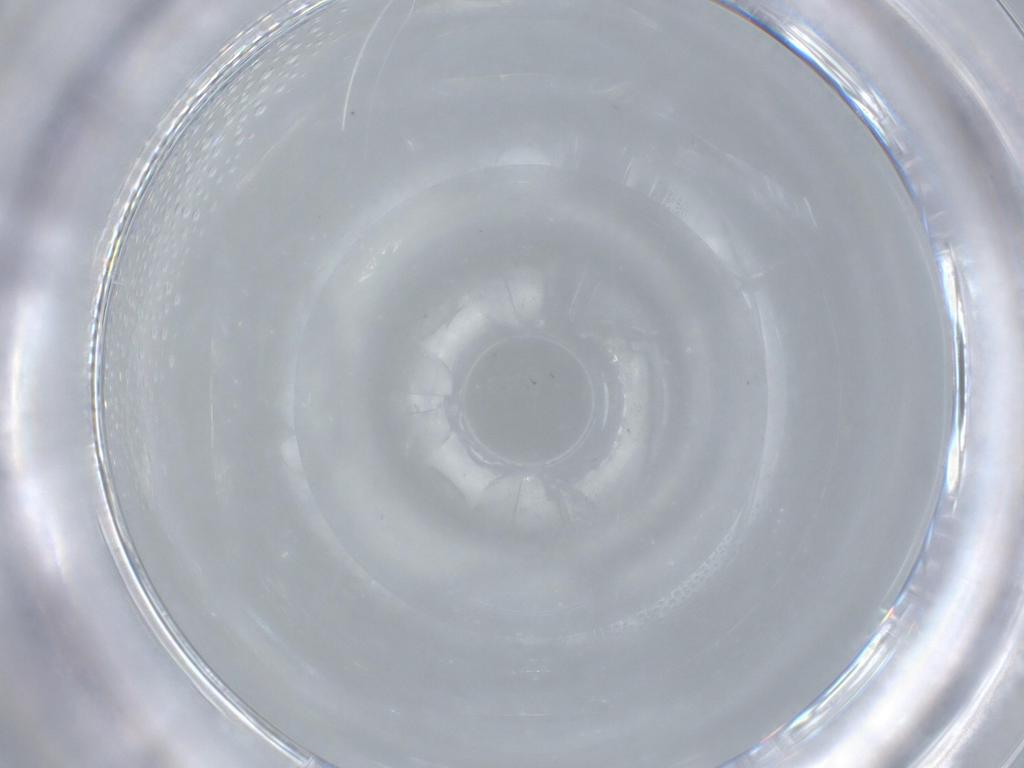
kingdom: Animalia
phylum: Arthropoda
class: Insecta
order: Diptera
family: Cecidomyiidae
